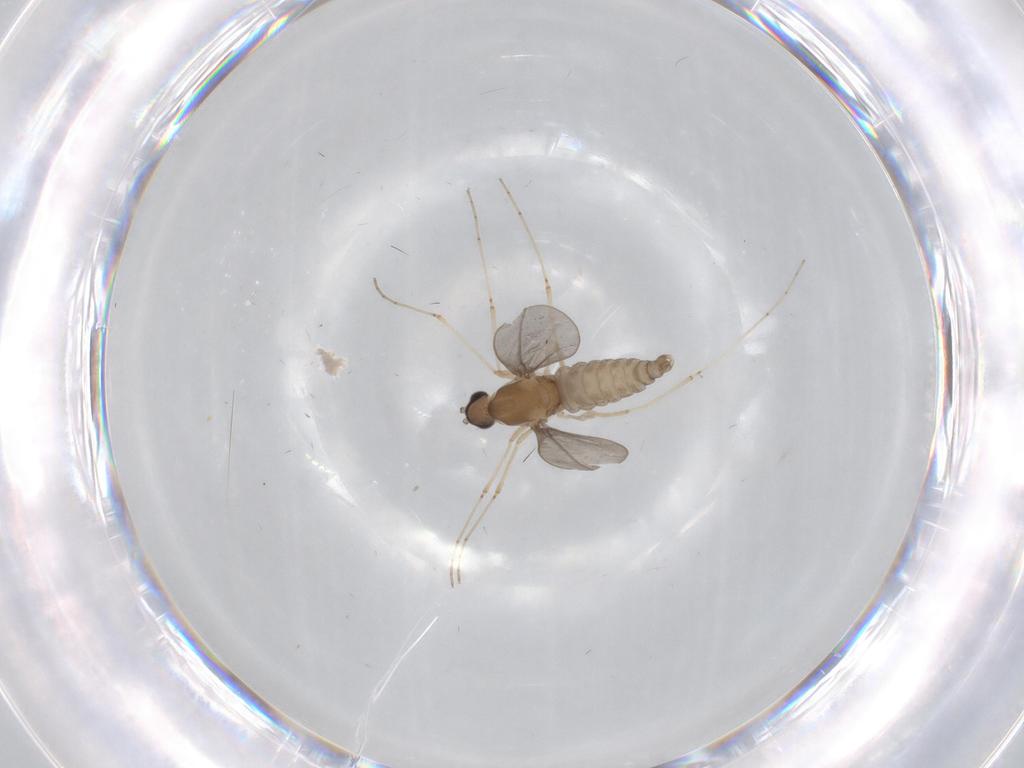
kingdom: Animalia
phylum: Arthropoda
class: Insecta
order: Diptera
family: Cecidomyiidae
